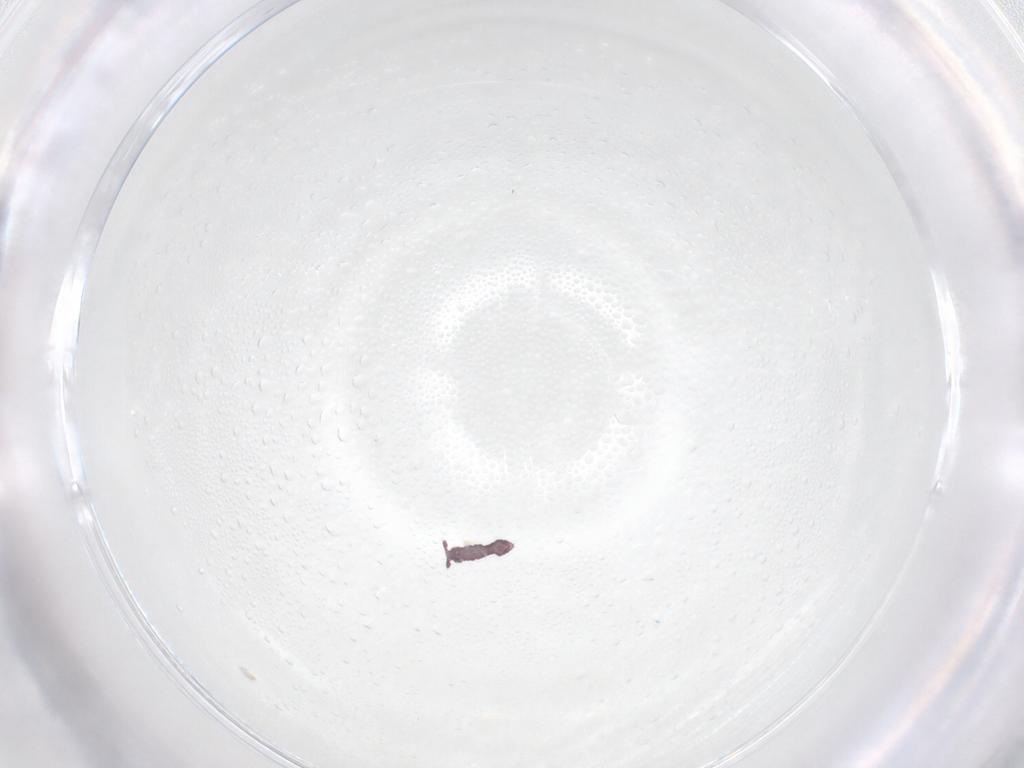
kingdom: Animalia
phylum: Arthropoda
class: Collembola
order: Poduromorpha
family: Hypogastruridae
